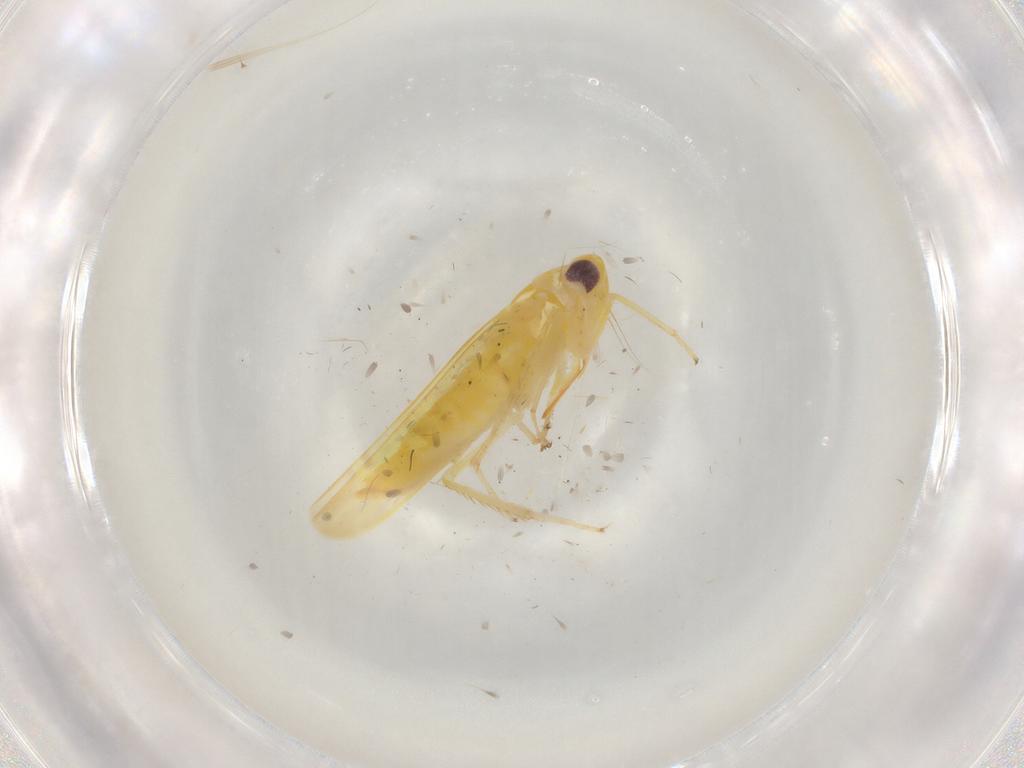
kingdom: Animalia
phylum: Arthropoda
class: Insecta
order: Hemiptera
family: Cicadellidae
